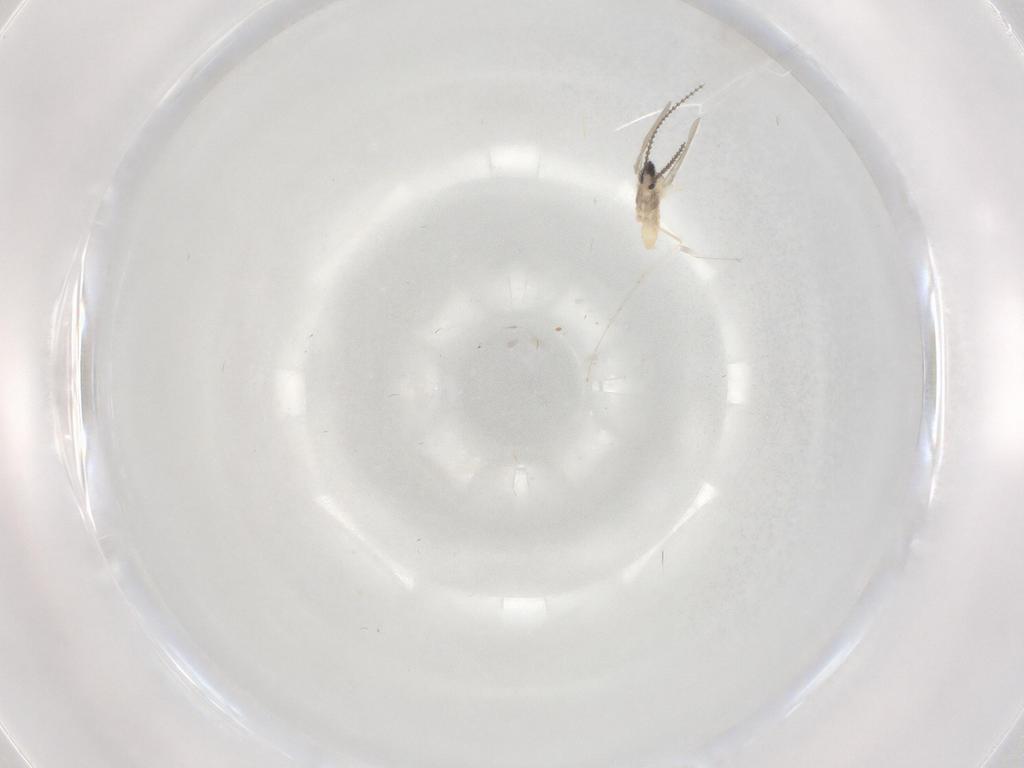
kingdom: Animalia
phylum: Arthropoda
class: Insecta
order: Diptera
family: Cecidomyiidae
